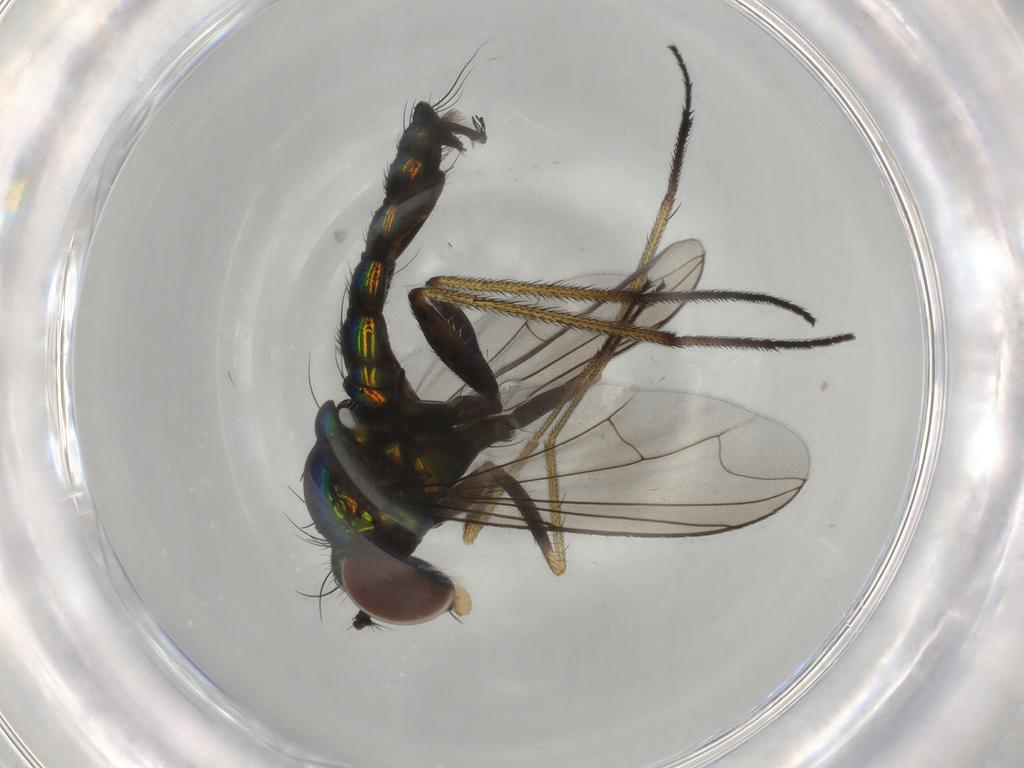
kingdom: Animalia
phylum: Arthropoda
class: Insecta
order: Diptera
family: Dolichopodidae
